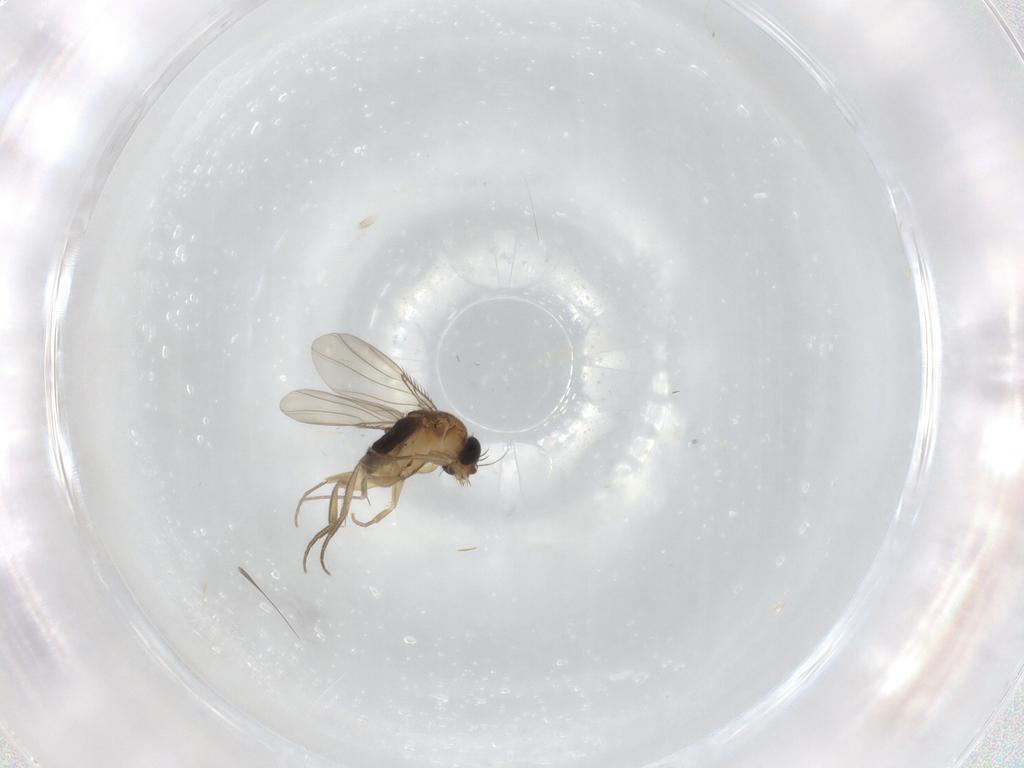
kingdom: Animalia
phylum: Arthropoda
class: Insecta
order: Diptera
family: Phoridae
